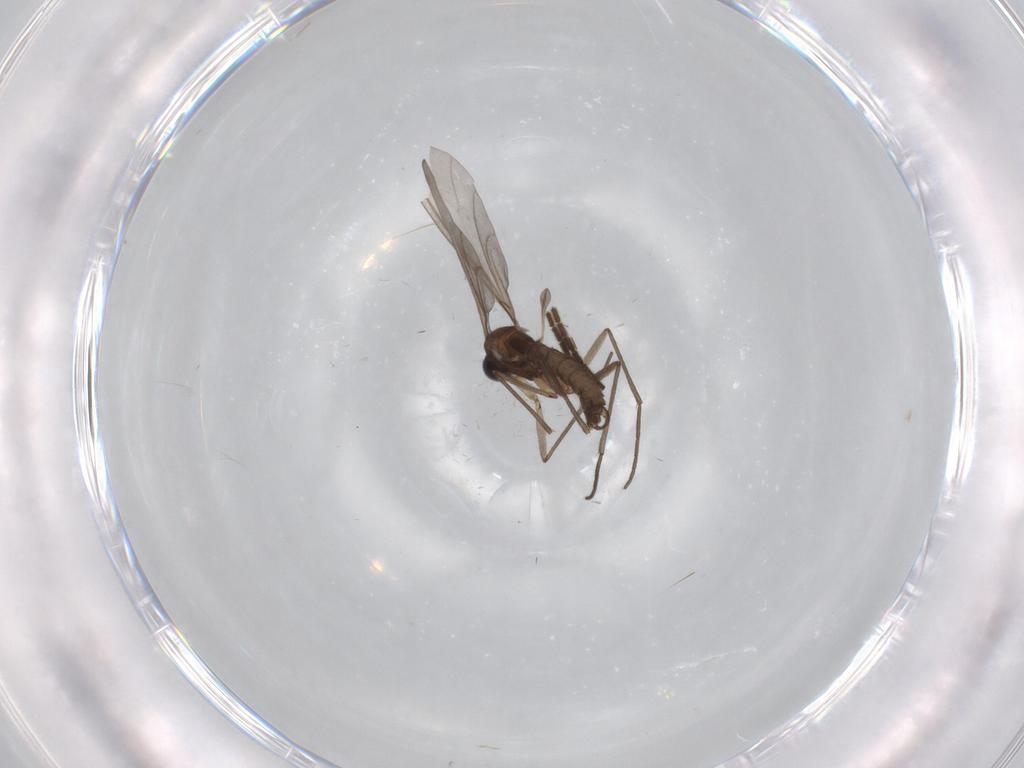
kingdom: Animalia
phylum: Arthropoda
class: Insecta
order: Diptera
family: Sciaridae
